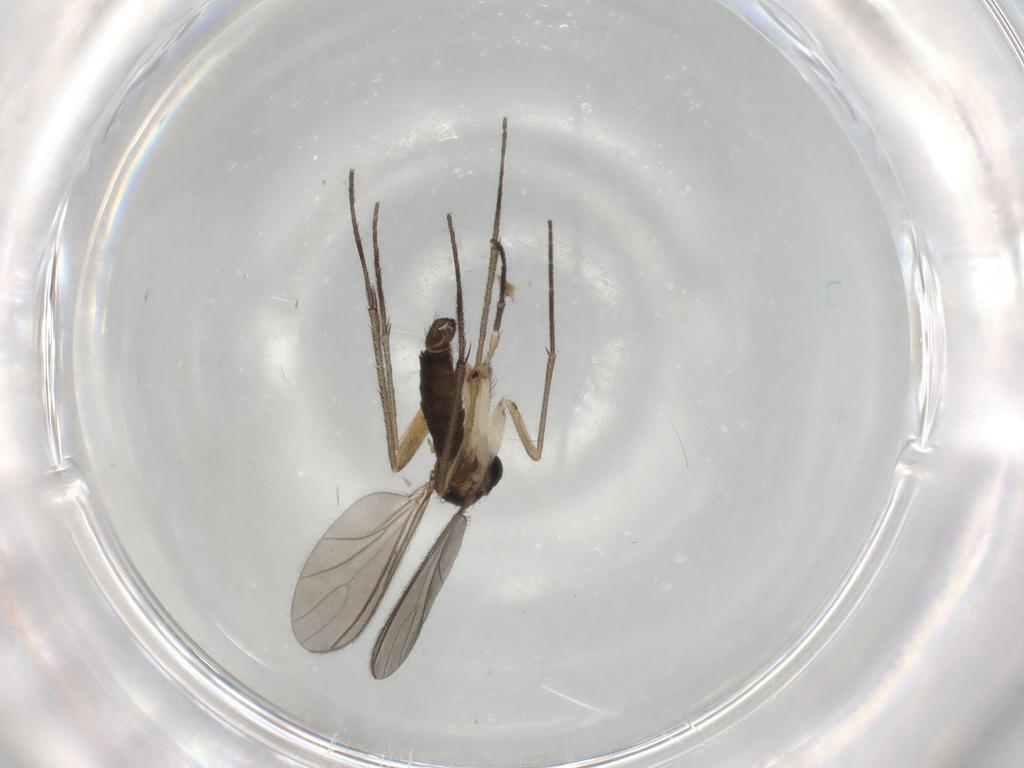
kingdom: Animalia
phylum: Arthropoda
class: Insecta
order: Diptera
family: Sciaridae
